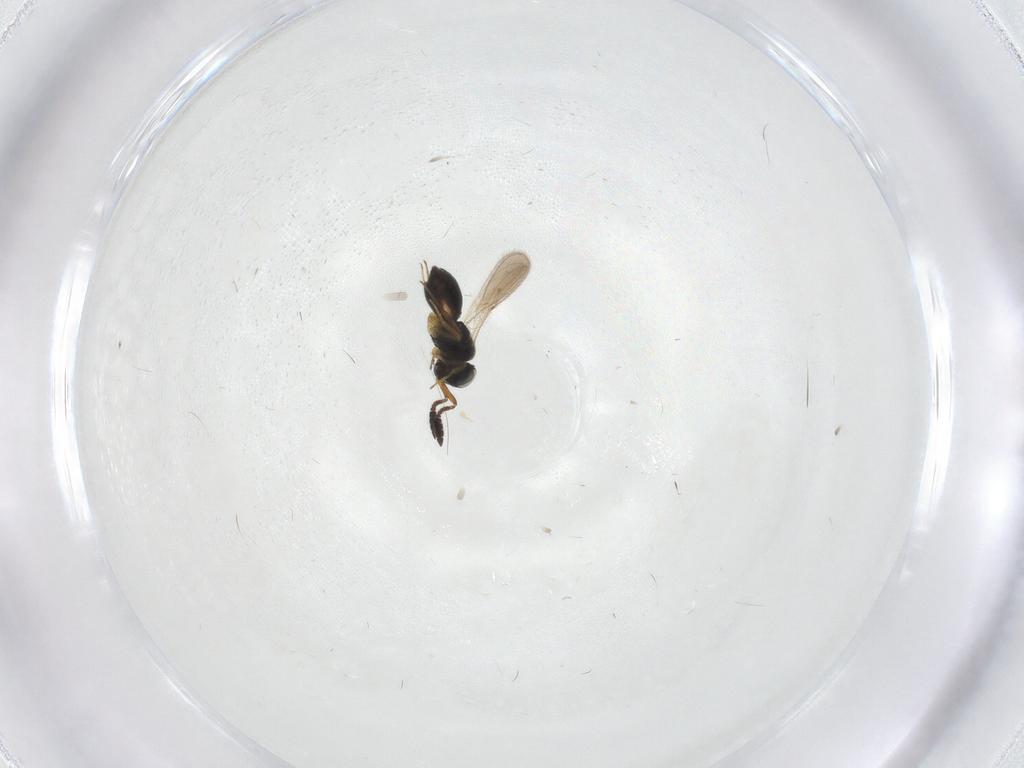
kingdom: Animalia
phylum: Arthropoda
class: Insecta
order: Hymenoptera
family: Scelionidae
